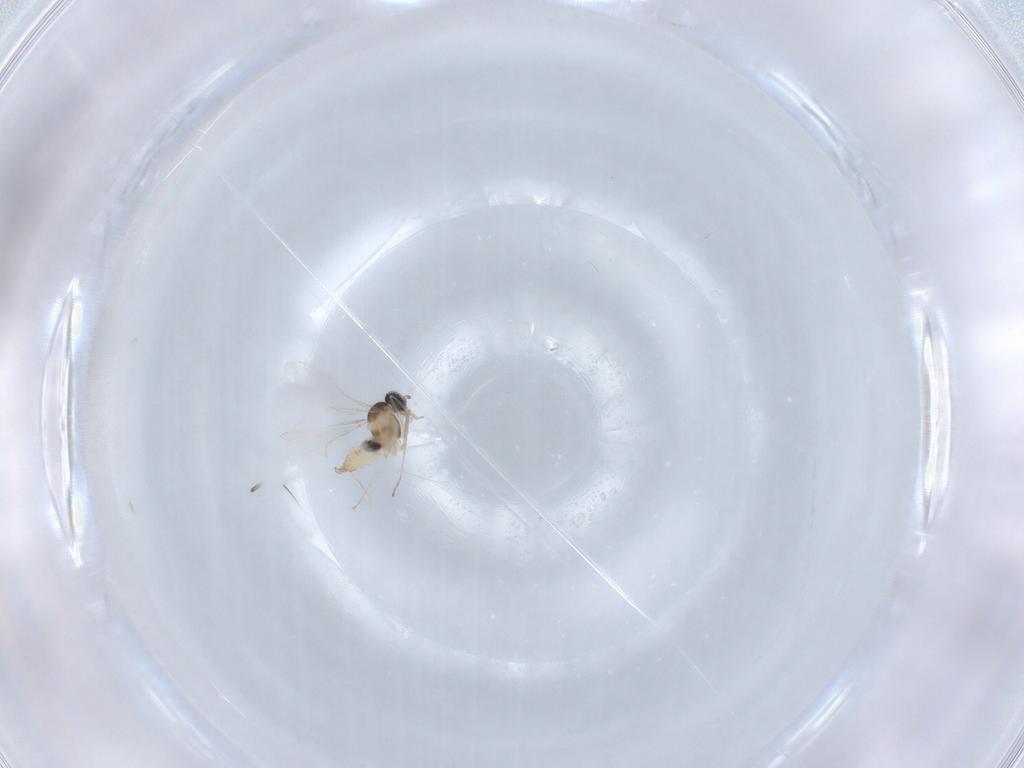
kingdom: Animalia
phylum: Arthropoda
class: Insecta
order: Diptera
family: Cecidomyiidae
